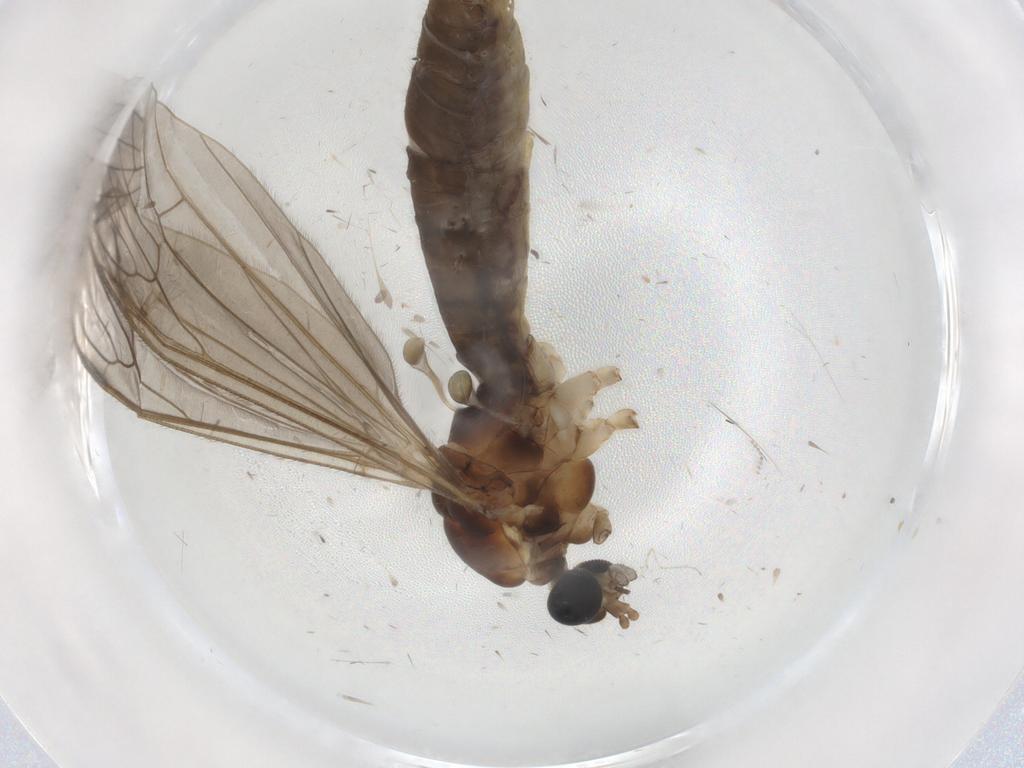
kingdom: Animalia
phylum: Arthropoda
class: Insecta
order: Diptera
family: Cecidomyiidae
